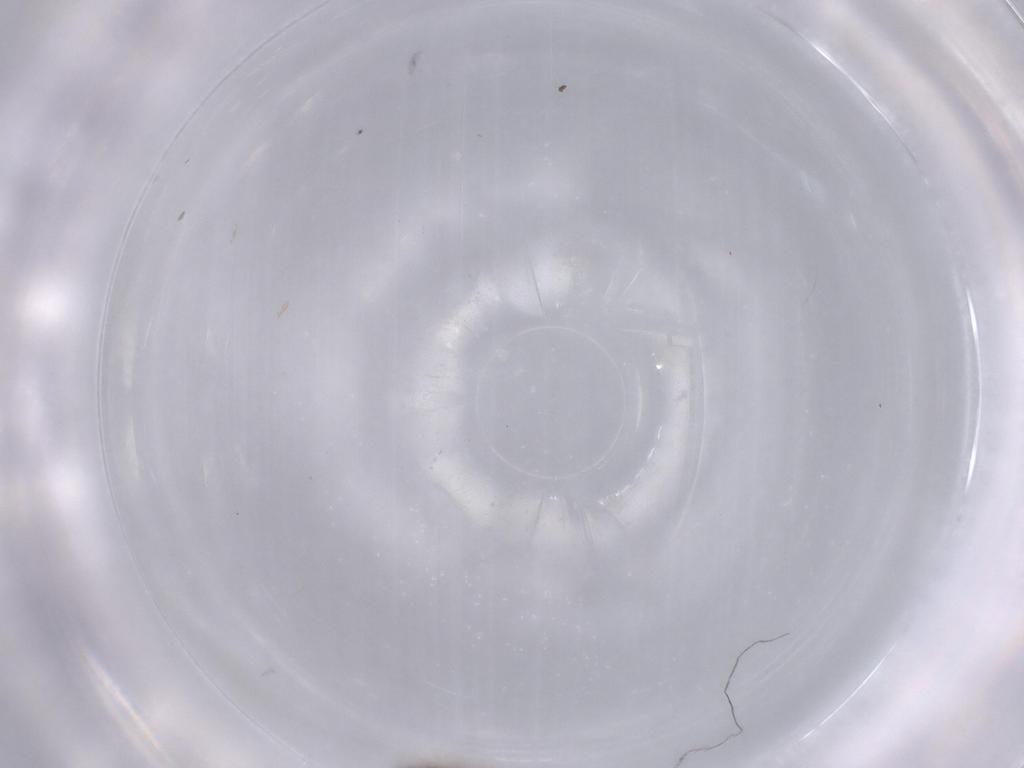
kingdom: Animalia
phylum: Arthropoda
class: Insecta
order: Diptera
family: Ceratopogonidae
